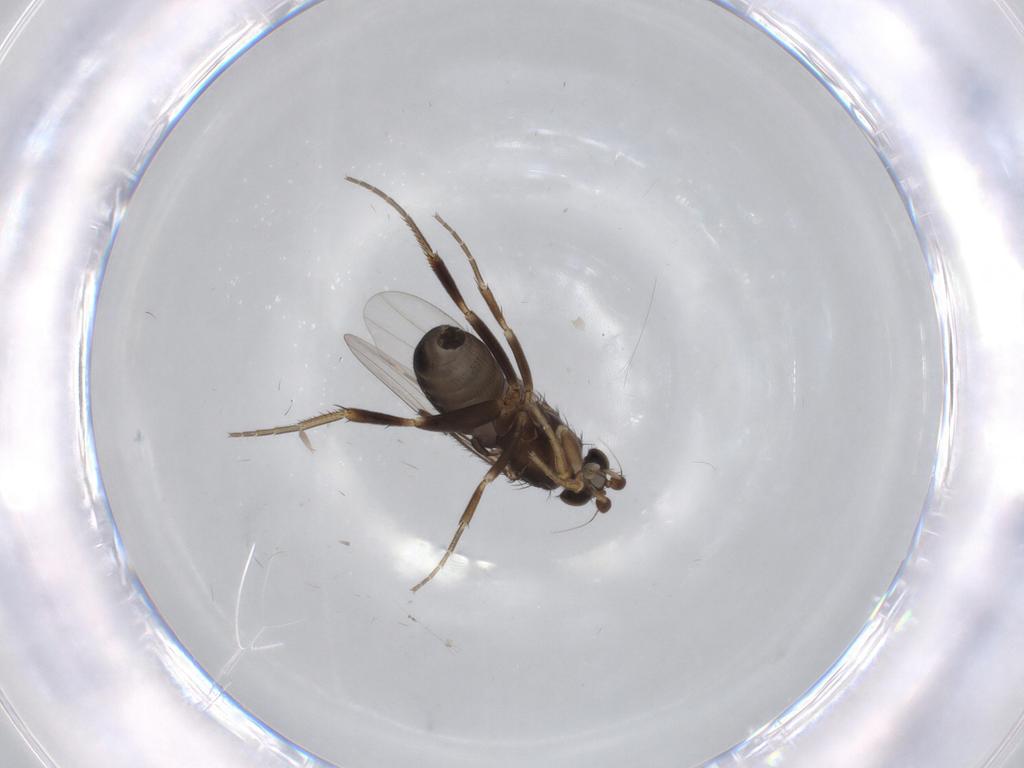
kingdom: Animalia
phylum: Arthropoda
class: Insecta
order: Diptera
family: Phoridae
